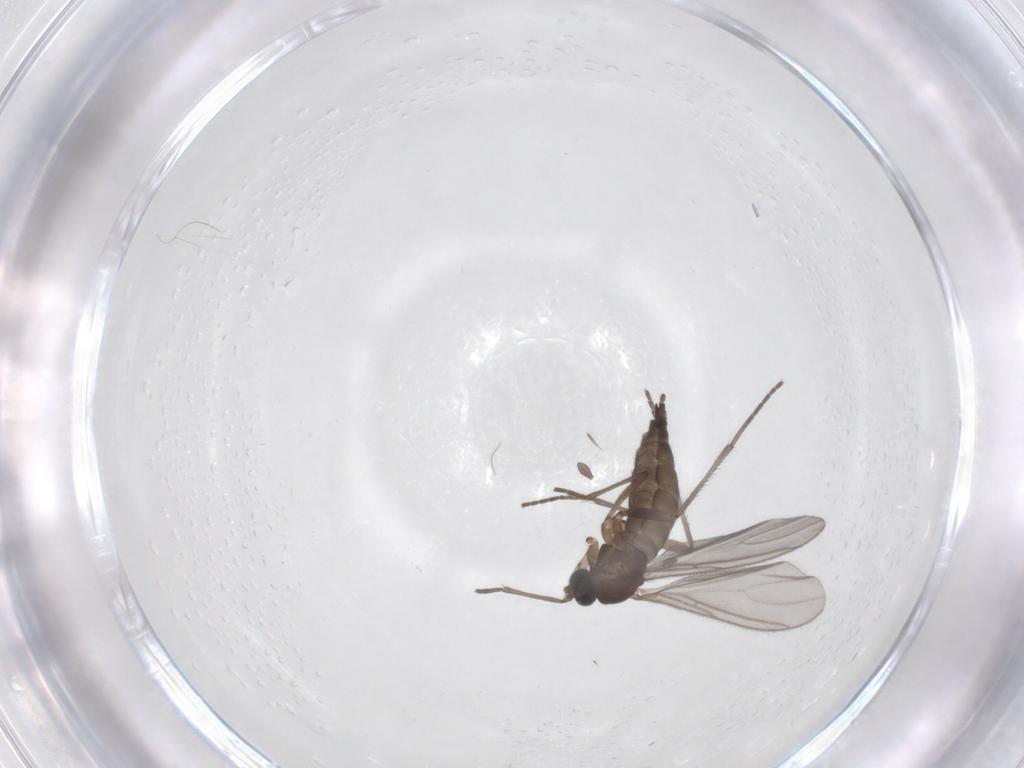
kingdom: Animalia
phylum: Arthropoda
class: Insecta
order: Diptera
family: Sciaridae
